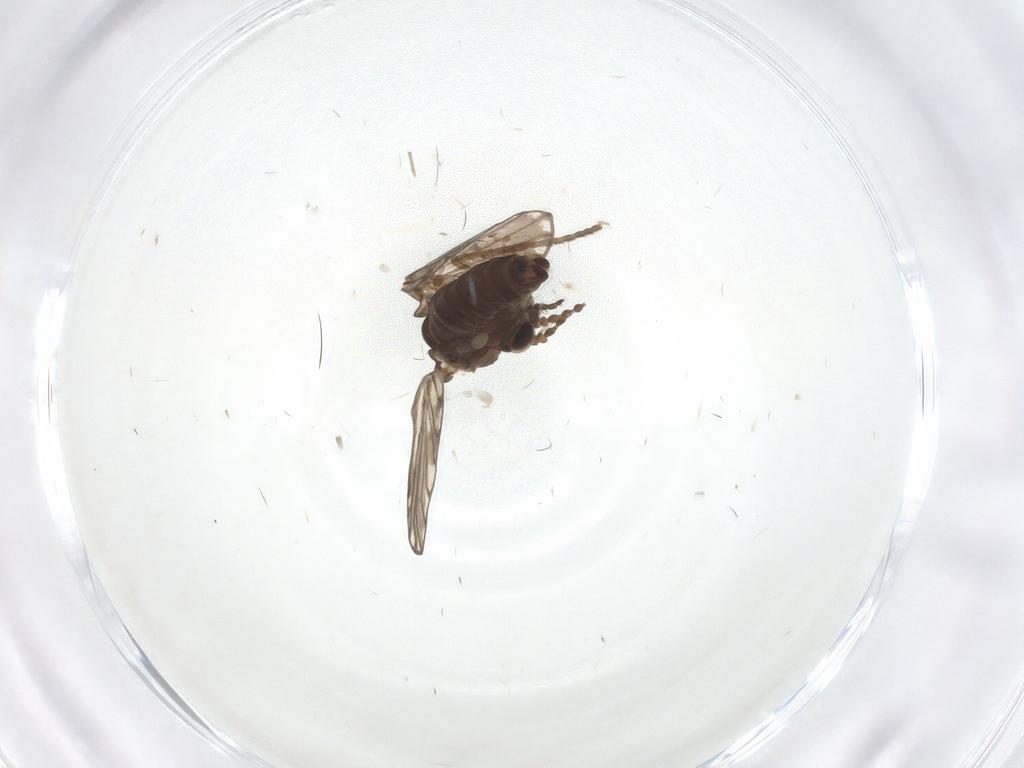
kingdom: Animalia
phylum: Arthropoda
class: Insecta
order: Diptera
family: Psychodidae
